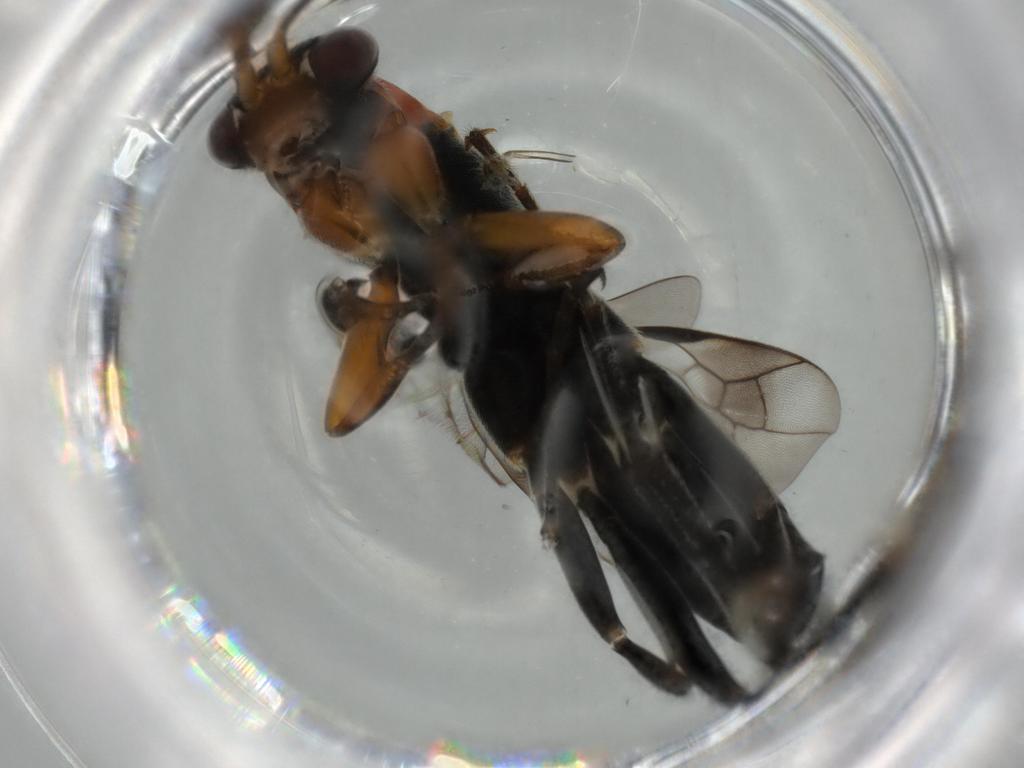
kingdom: Animalia
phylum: Arthropoda
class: Insecta
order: Hymenoptera
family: Pompilidae
